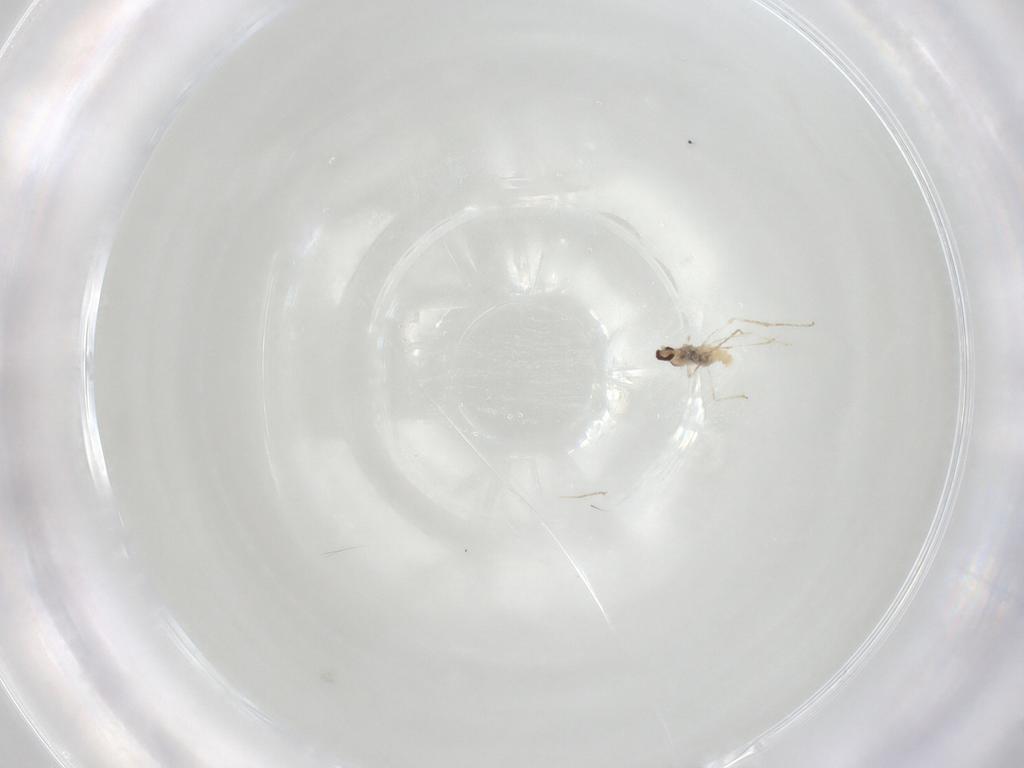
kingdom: Animalia
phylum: Arthropoda
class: Insecta
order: Diptera
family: Cecidomyiidae
